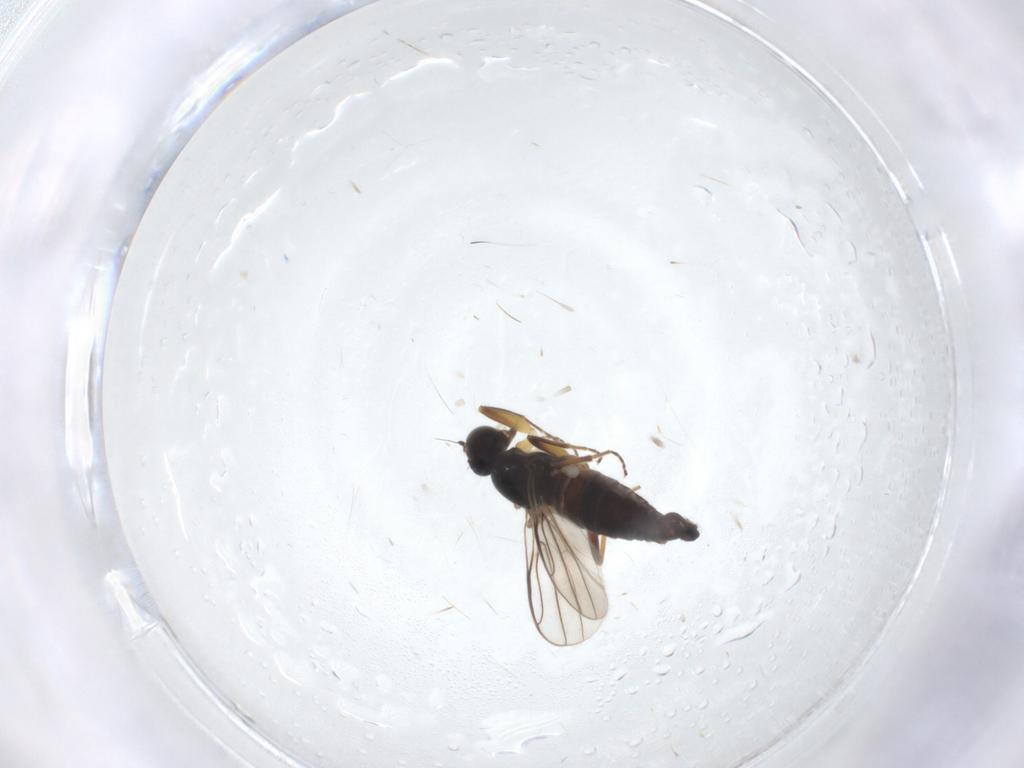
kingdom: Animalia
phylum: Arthropoda
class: Insecta
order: Diptera
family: Hybotidae
